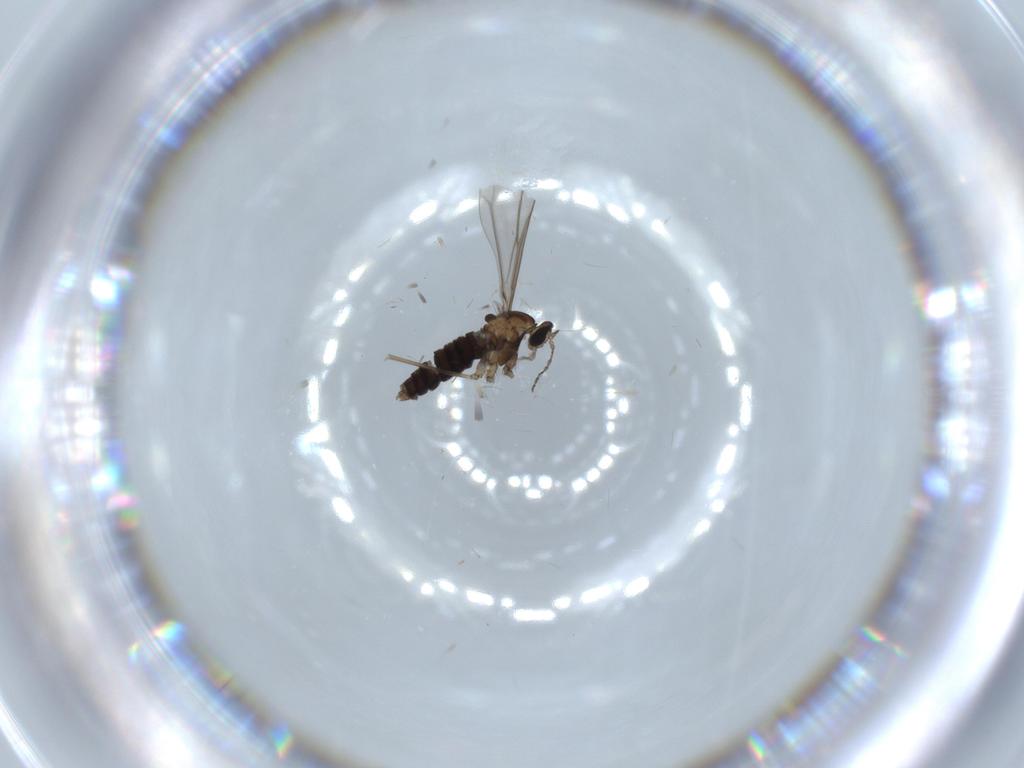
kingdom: Animalia
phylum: Arthropoda
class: Insecta
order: Diptera
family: Cecidomyiidae
